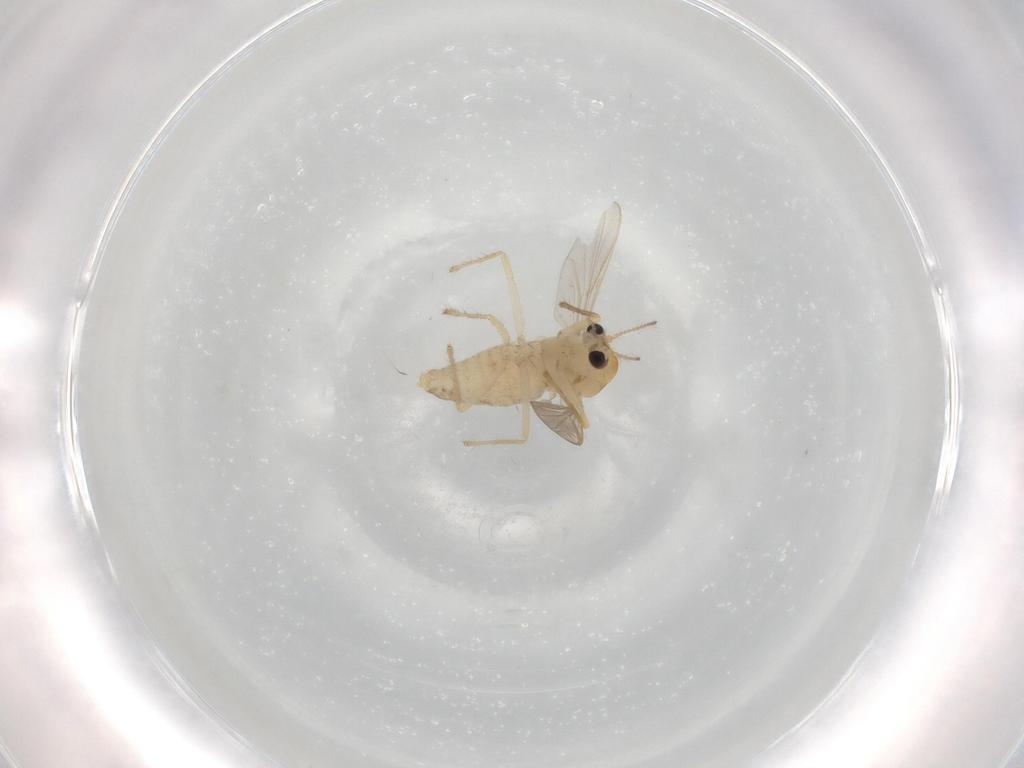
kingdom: Animalia
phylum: Arthropoda
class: Insecta
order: Diptera
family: Chironomidae
